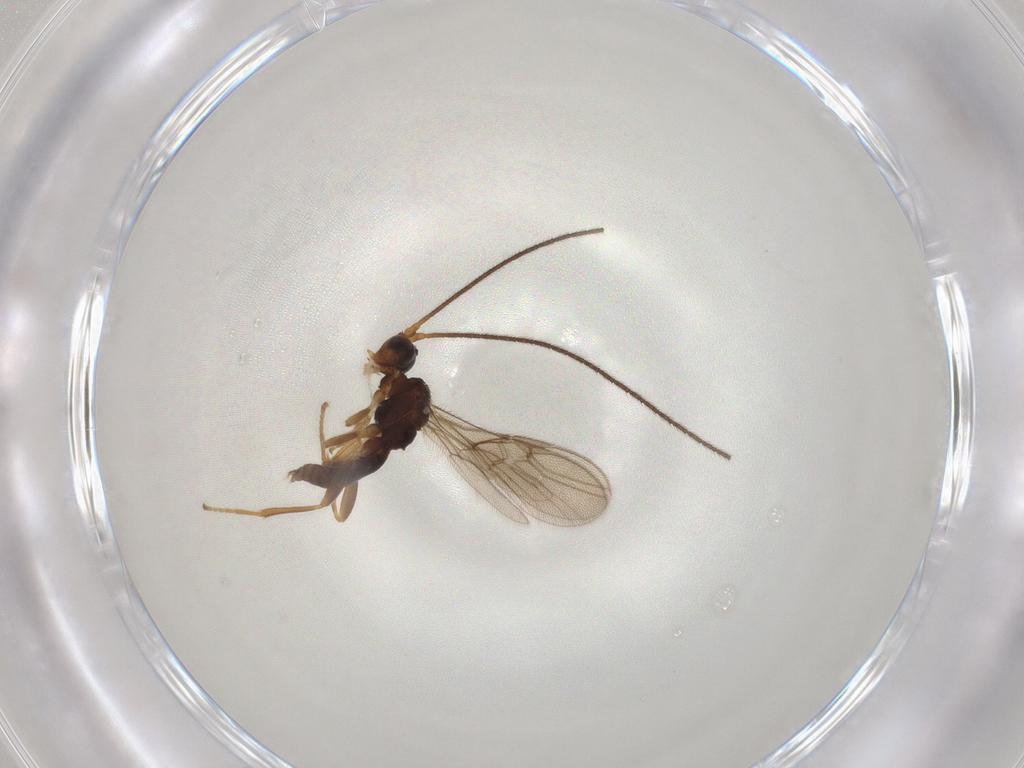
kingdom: Animalia
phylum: Arthropoda
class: Insecta
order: Hymenoptera
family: Braconidae
